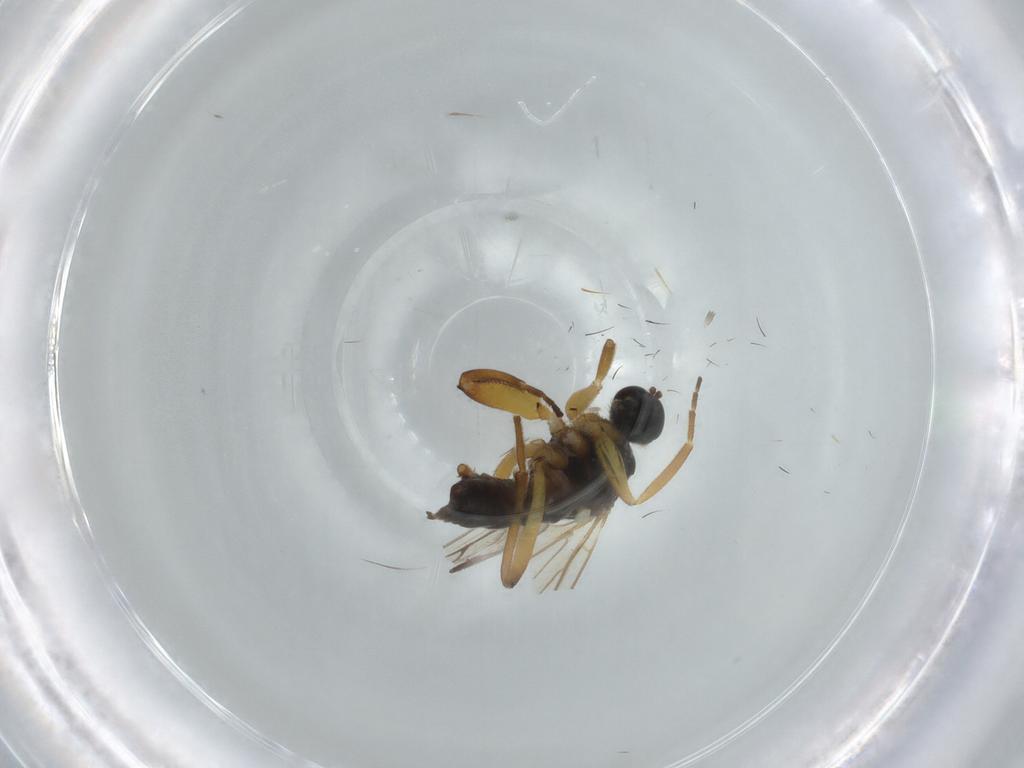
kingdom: Animalia
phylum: Arthropoda
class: Insecta
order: Diptera
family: Hybotidae
